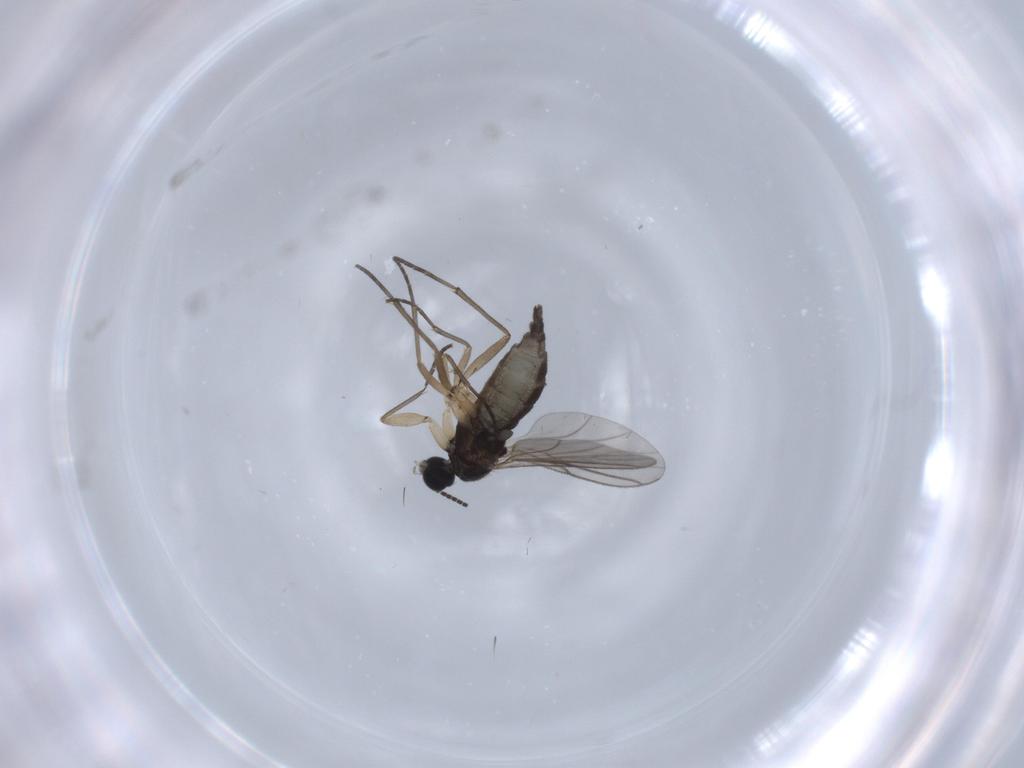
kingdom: Animalia
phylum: Arthropoda
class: Insecta
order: Diptera
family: Sciaridae
